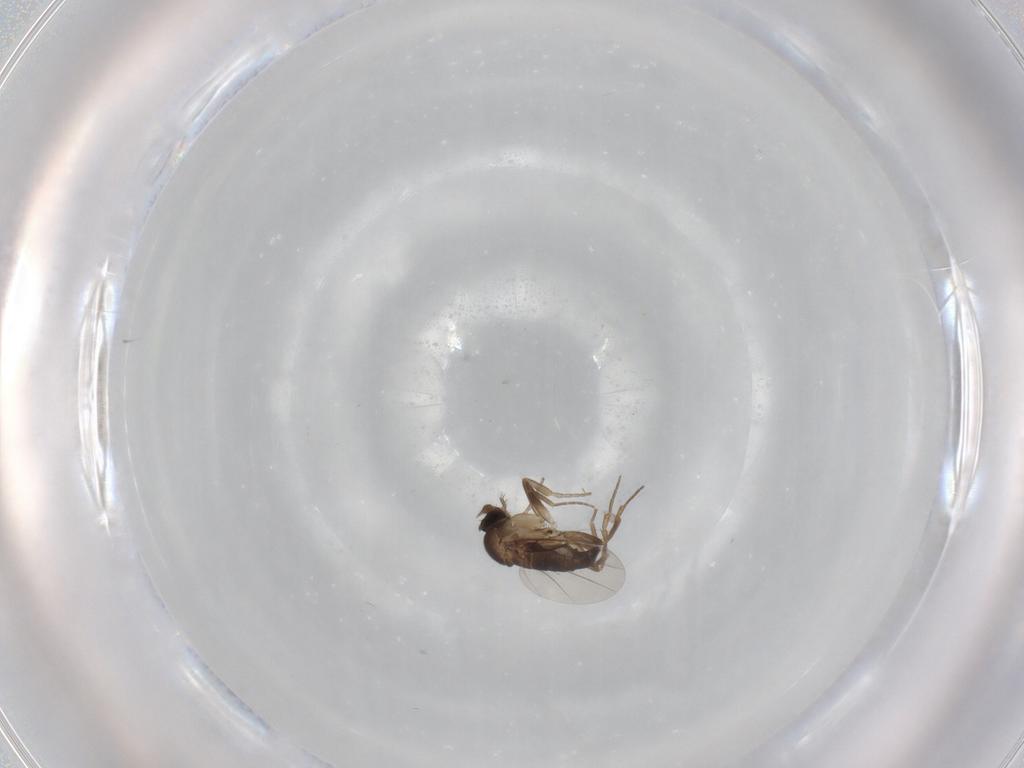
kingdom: Animalia
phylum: Arthropoda
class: Insecta
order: Diptera
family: Phoridae
